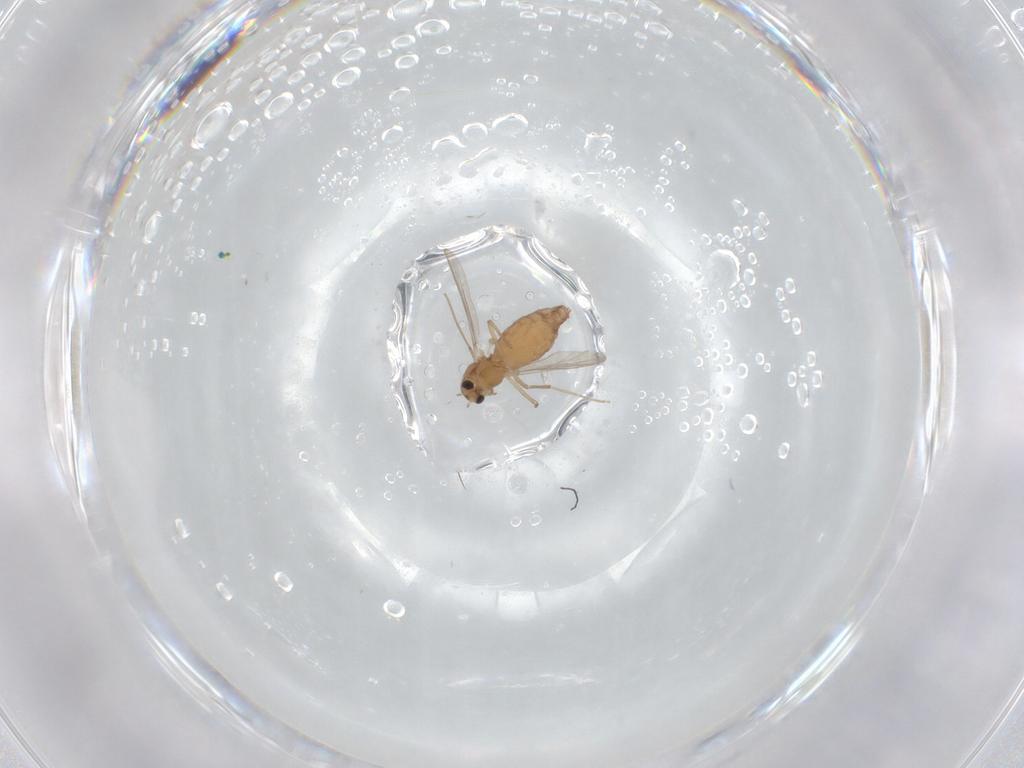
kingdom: Animalia
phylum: Arthropoda
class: Insecta
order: Diptera
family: Chironomidae
